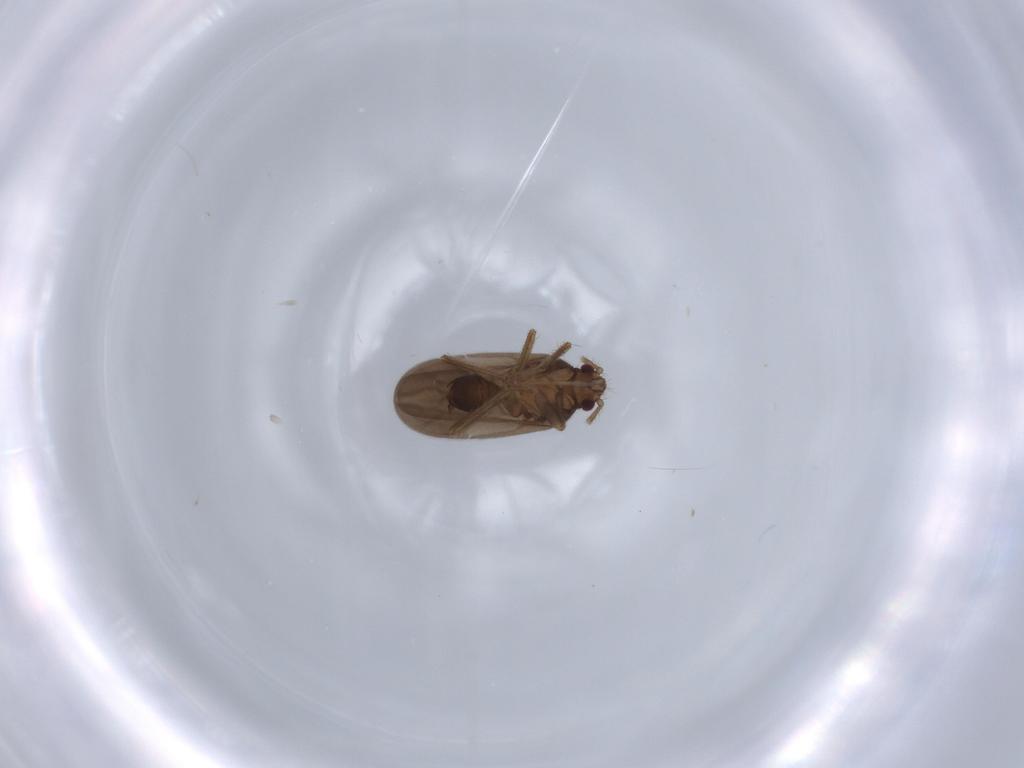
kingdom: Animalia
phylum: Arthropoda
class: Insecta
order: Hemiptera
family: Ceratocombidae
